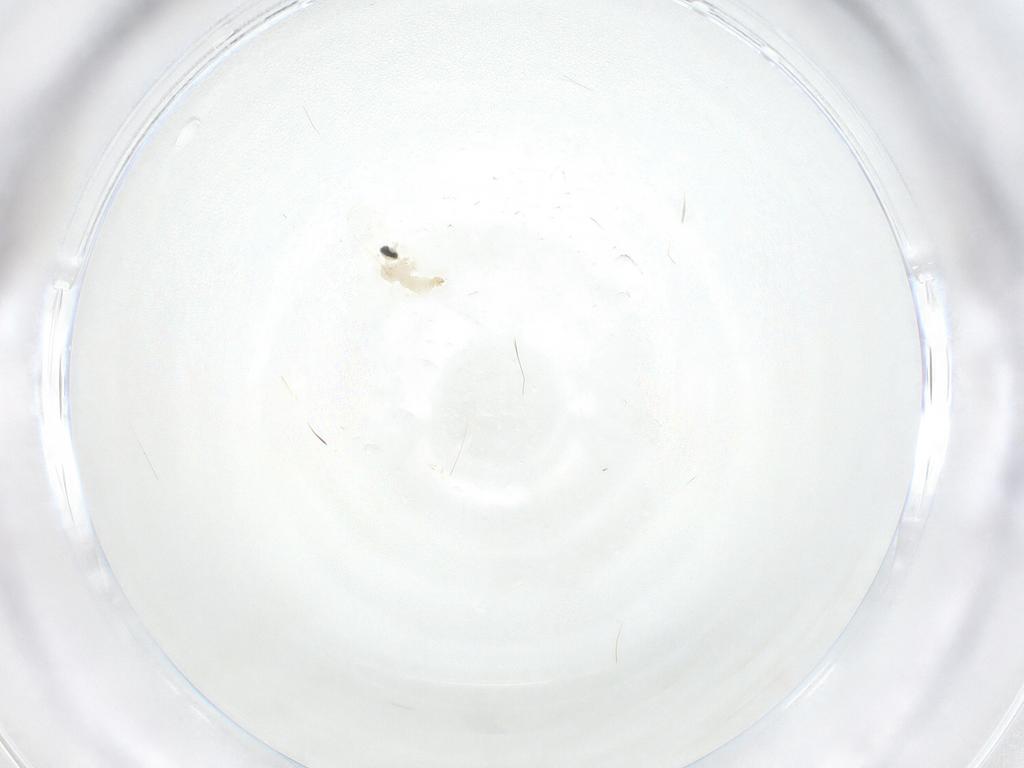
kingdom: Animalia
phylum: Arthropoda
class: Insecta
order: Diptera
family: Cecidomyiidae
